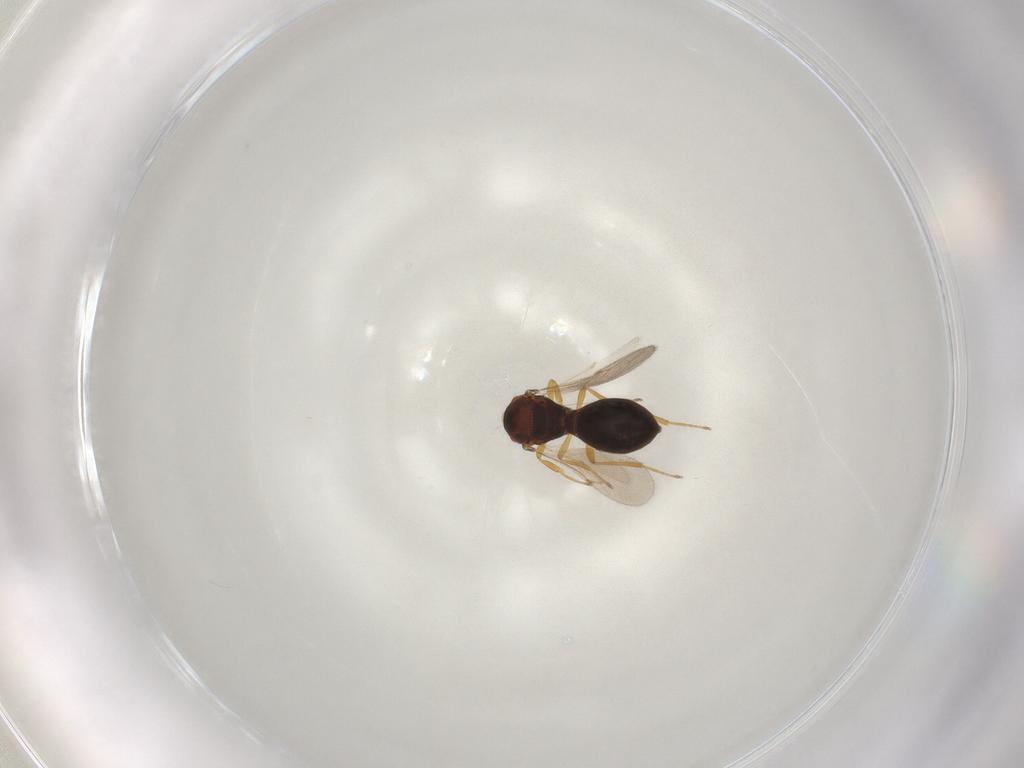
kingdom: Animalia
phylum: Arthropoda
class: Insecta
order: Hymenoptera
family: Scelionidae
